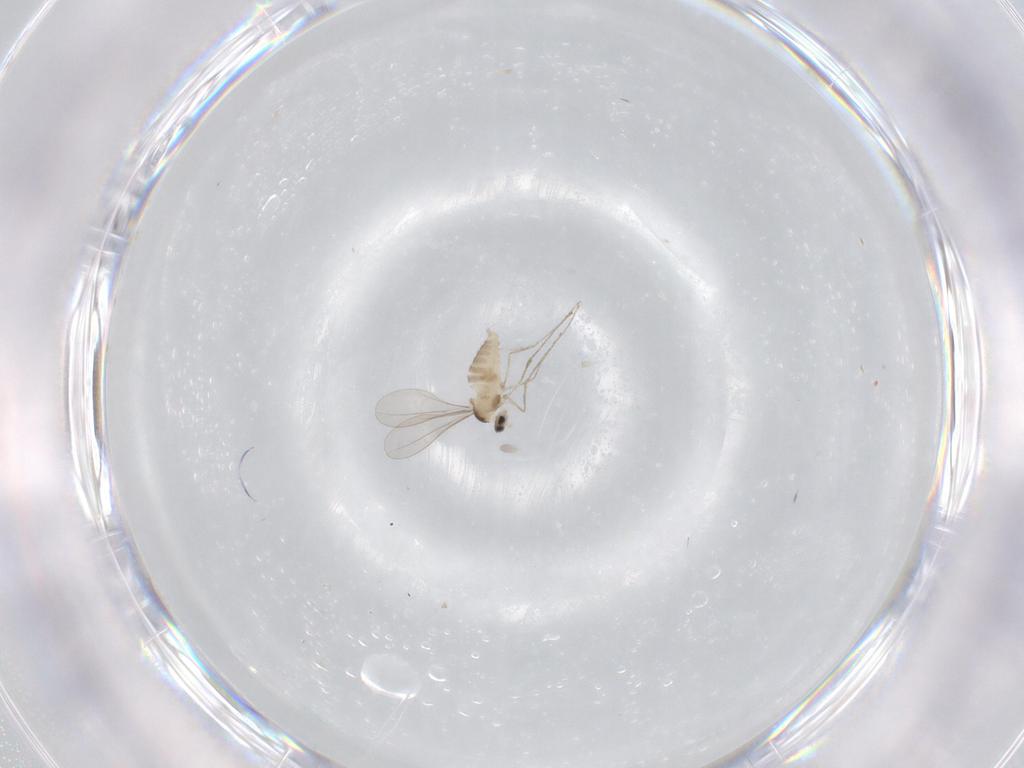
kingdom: Animalia
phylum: Arthropoda
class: Insecta
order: Diptera
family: Cecidomyiidae
